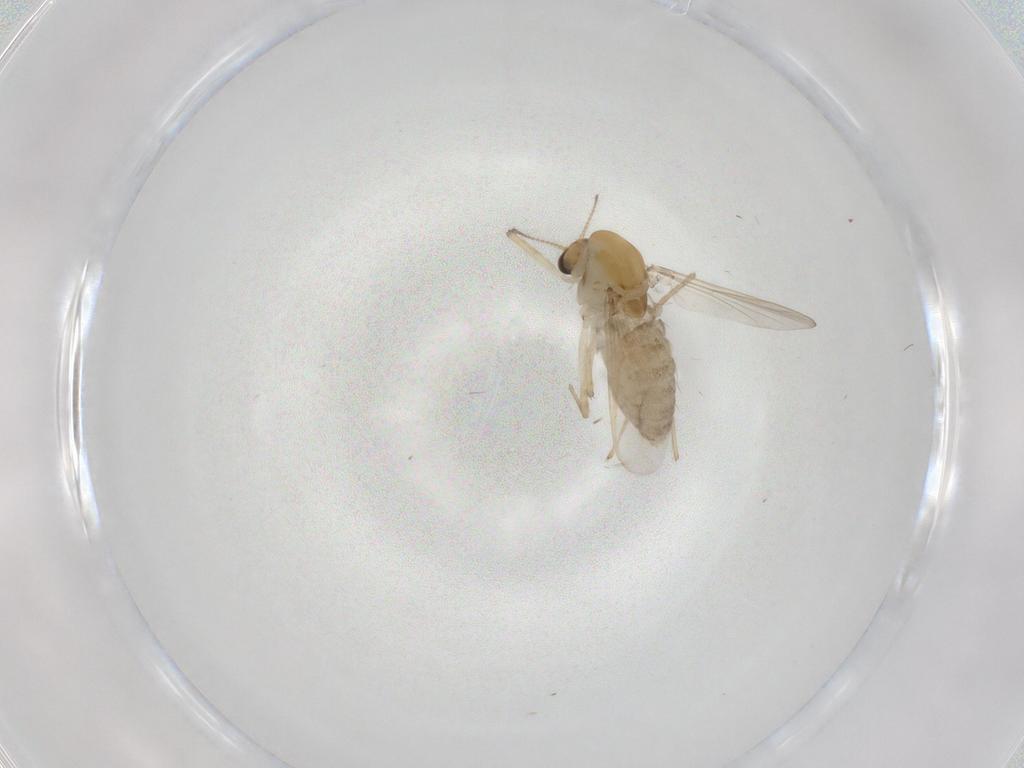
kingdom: Animalia
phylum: Arthropoda
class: Insecta
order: Diptera
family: Chironomidae
